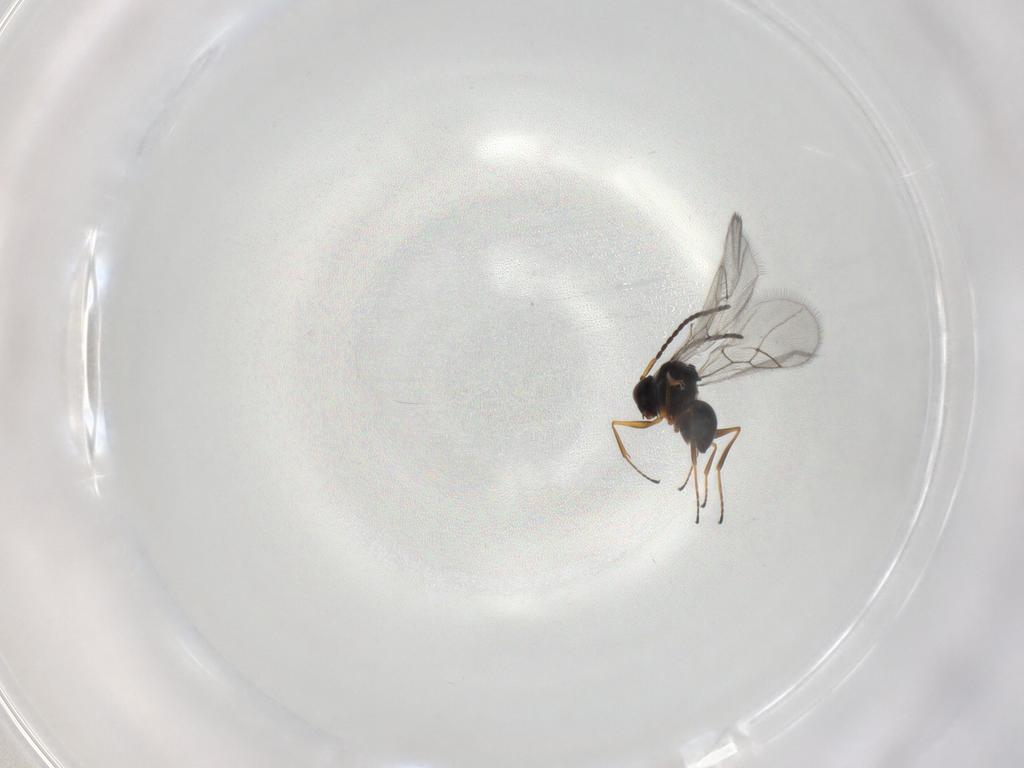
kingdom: Animalia
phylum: Arthropoda
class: Insecta
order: Hymenoptera
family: Figitidae
